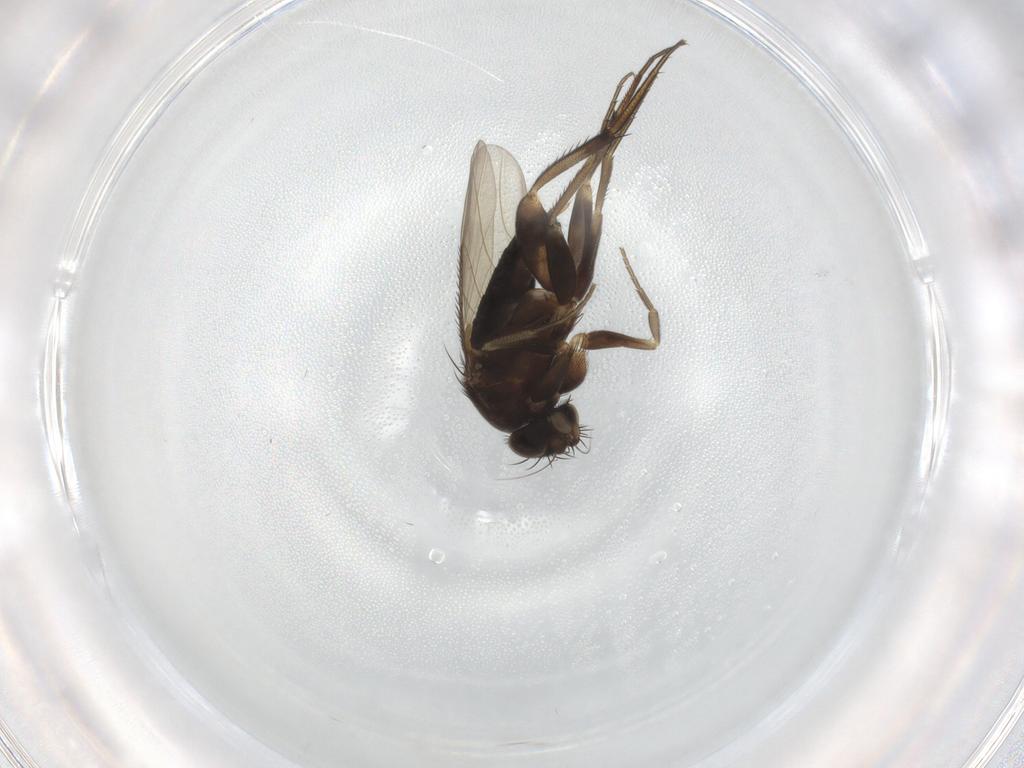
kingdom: Animalia
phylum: Arthropoda
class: Insecta
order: Diptera
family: Phoridae
